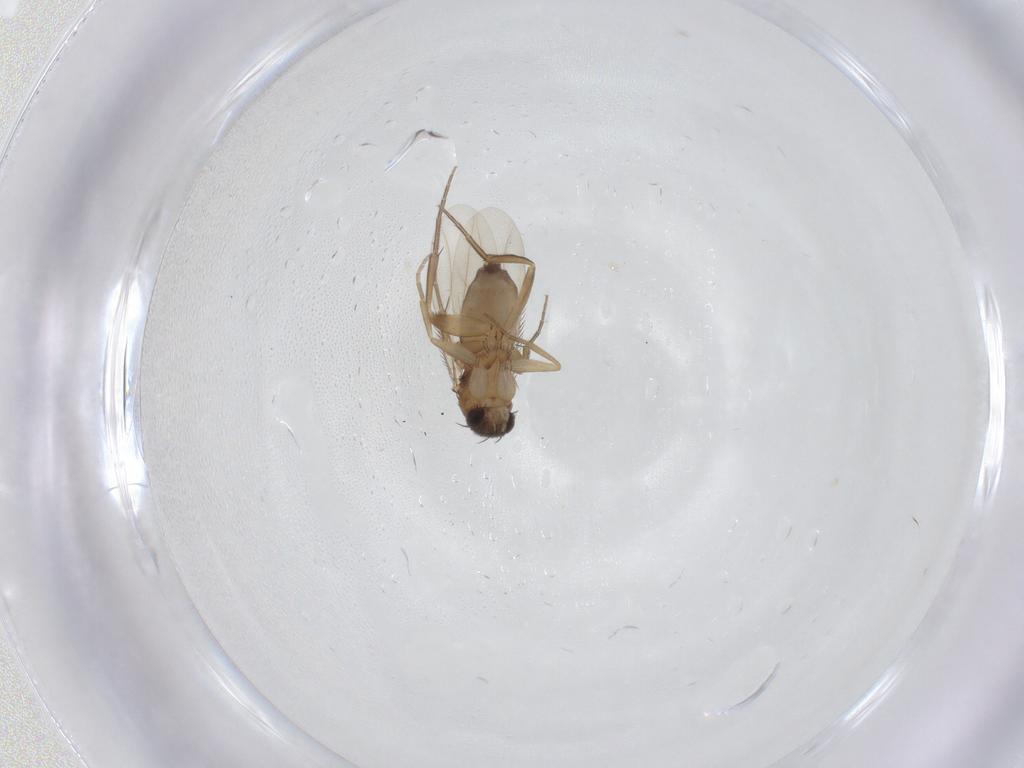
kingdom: Animalia
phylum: Arthropoda
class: Insecta
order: Diptera
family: Phoridae
